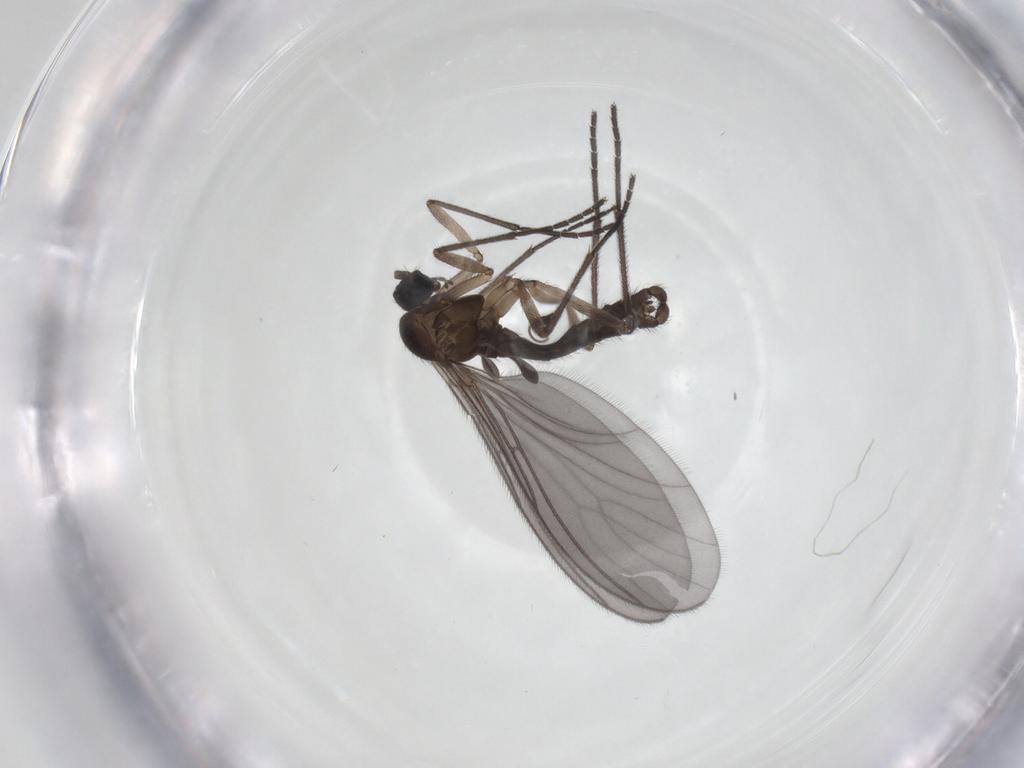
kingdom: Animalia
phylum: Arthropoda
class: Insecta
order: Diptera
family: Sciaridae
